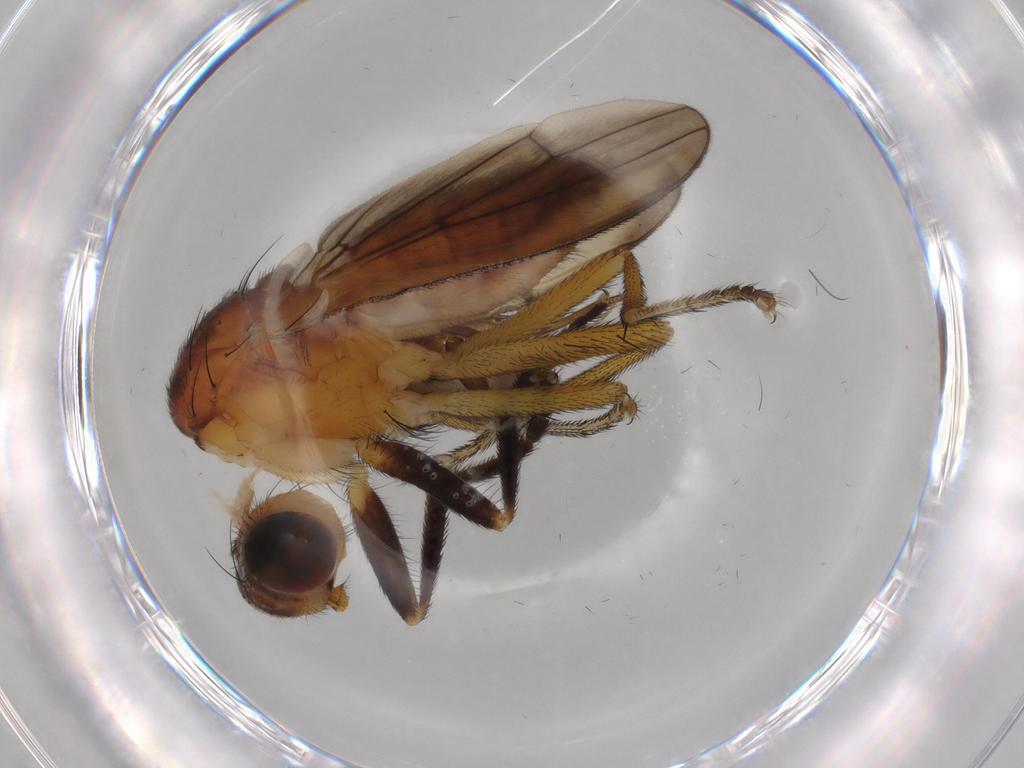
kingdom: Animalia
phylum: Arthropoda
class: Insecta
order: Diptera
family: Phoridae
